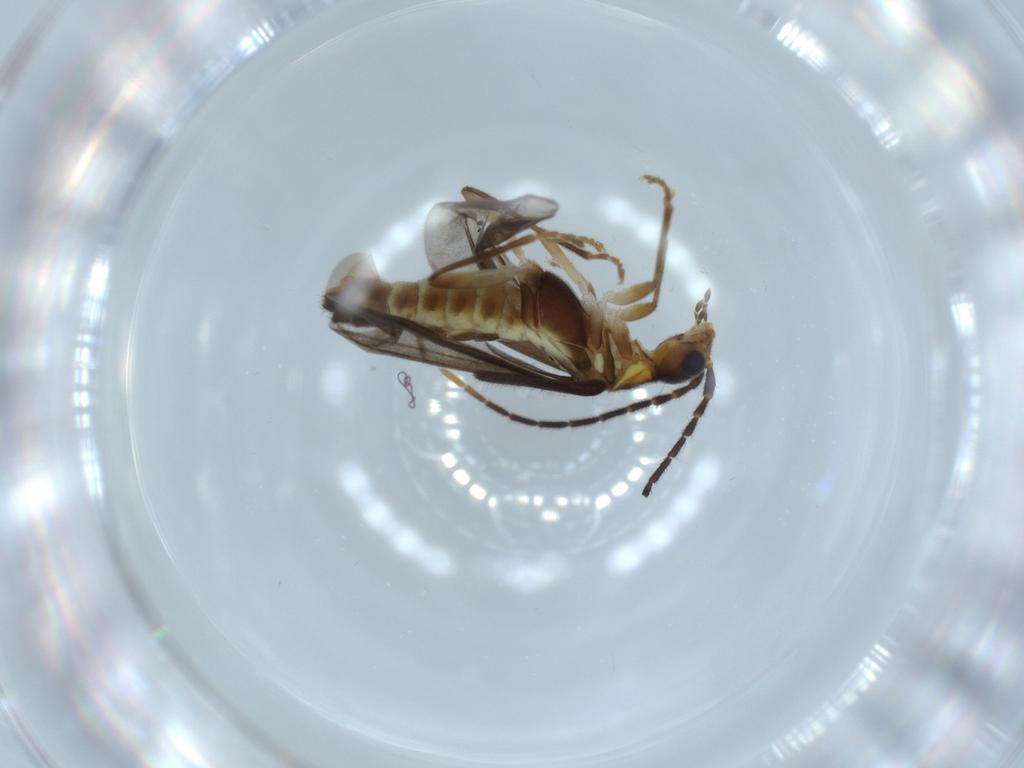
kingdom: Animalia
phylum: Arthropoda
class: Insecta
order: Coleoptera
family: Cantharidae
